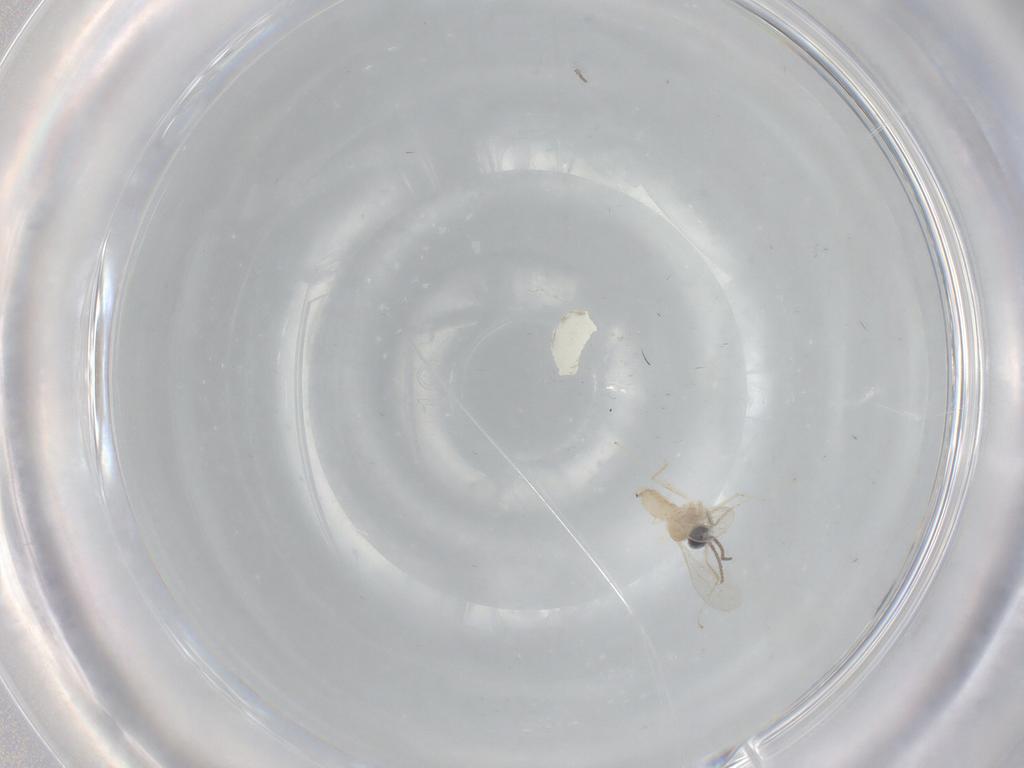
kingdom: Animalia
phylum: Arthropoda
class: Insecta
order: Diptera
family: Cecidomyiidae
